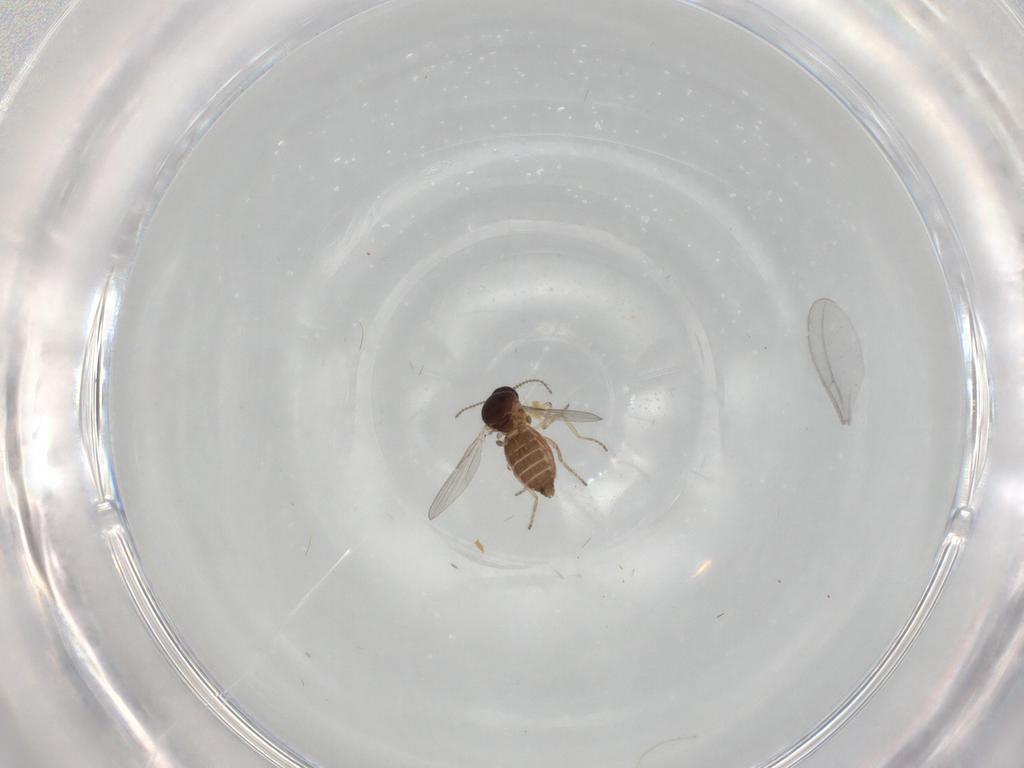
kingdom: Animalia
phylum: Arthropoda
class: Insecta
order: Diptera
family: Ceratopogonidae
